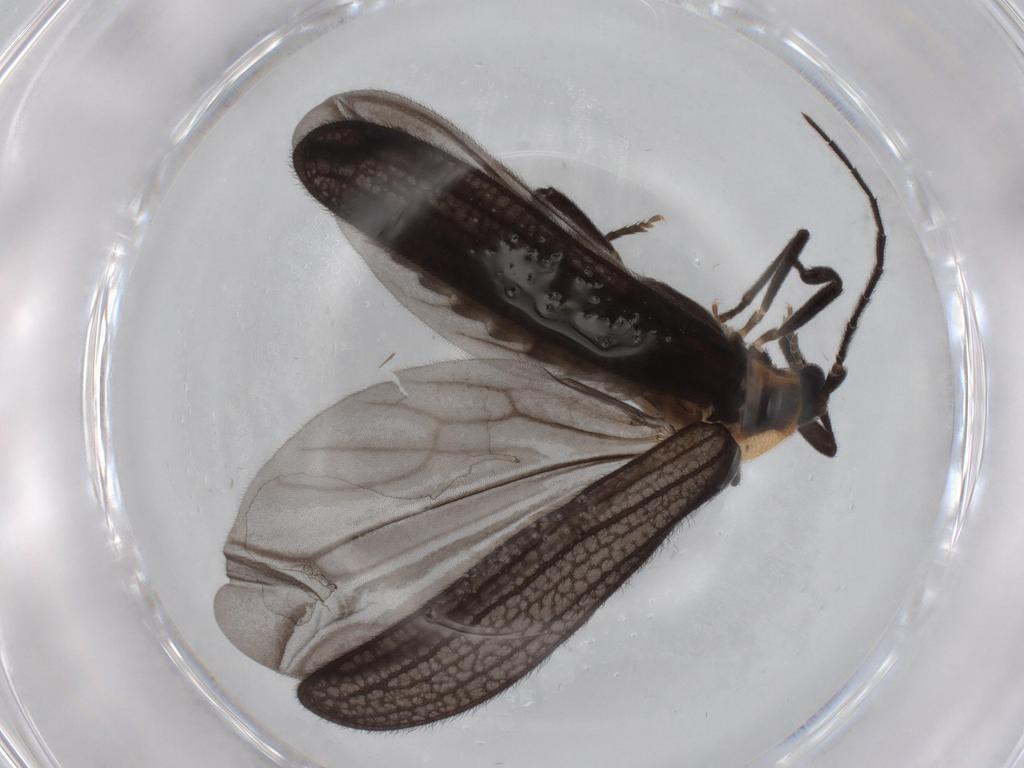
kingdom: Animalia
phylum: Arthropoda
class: Insecta
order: Coleoptera
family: Lycidae
